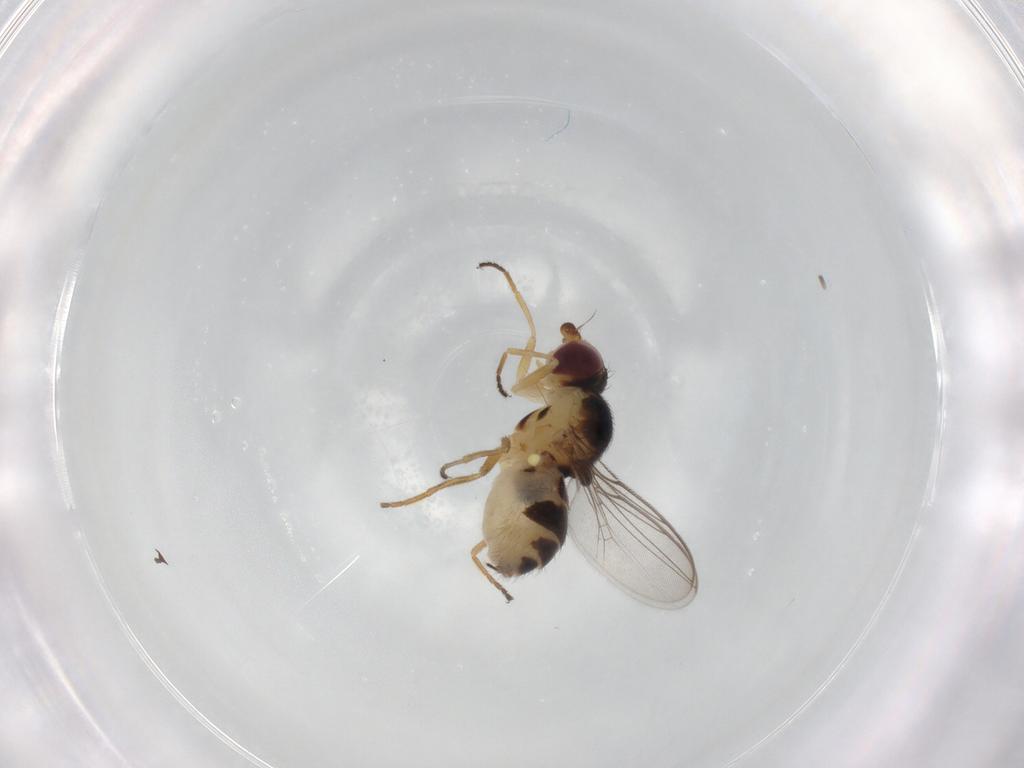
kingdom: Animalia
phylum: Arthropoda
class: Insecta
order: Diptera
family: Chloropidae
